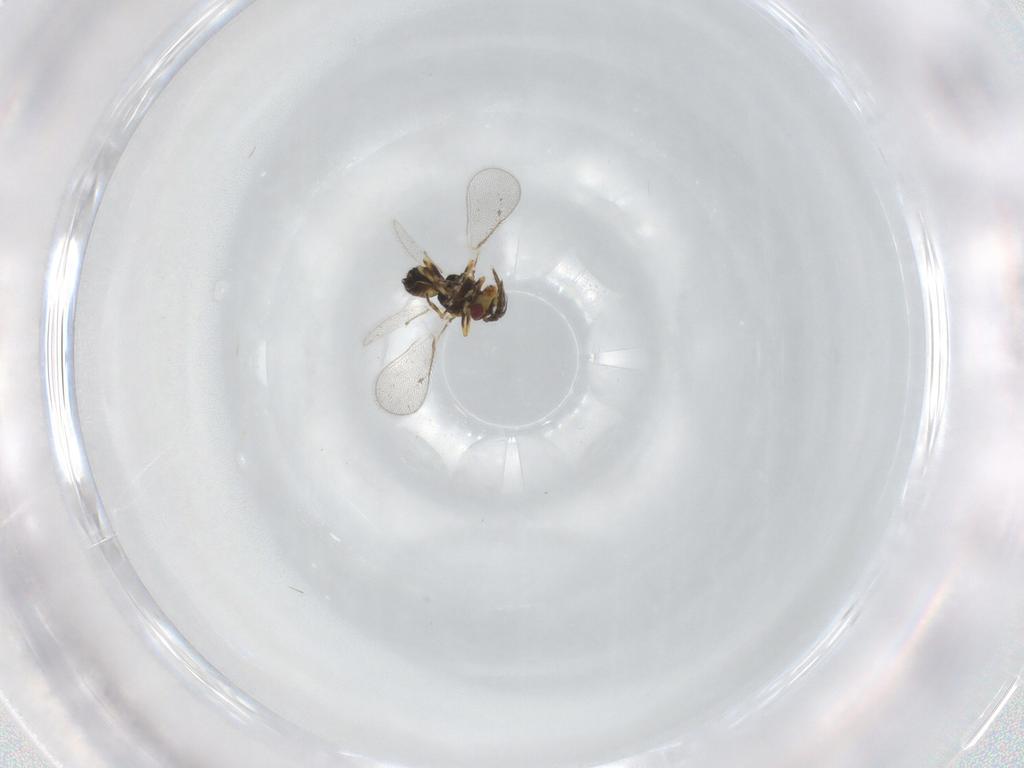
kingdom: Animalia
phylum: Arthropoda
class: Insecta
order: Hymenoptera
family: Eulophidae
